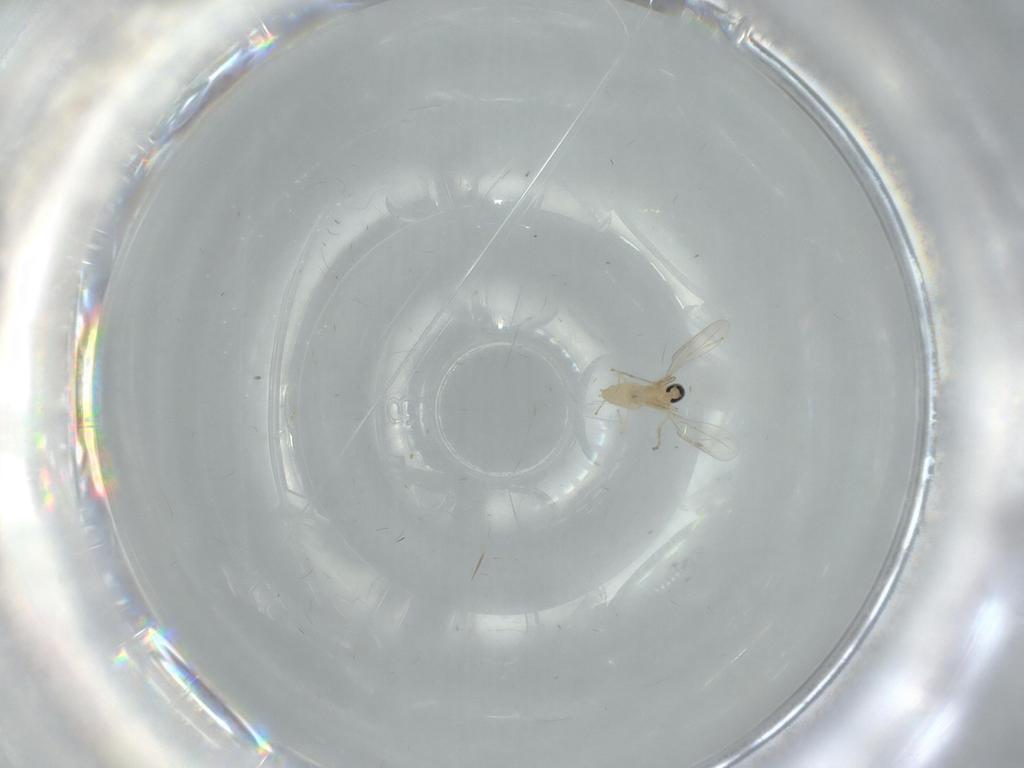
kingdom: Animalia
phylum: Arthropoda
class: Insecta
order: Diptera
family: Cecidomyiidae
